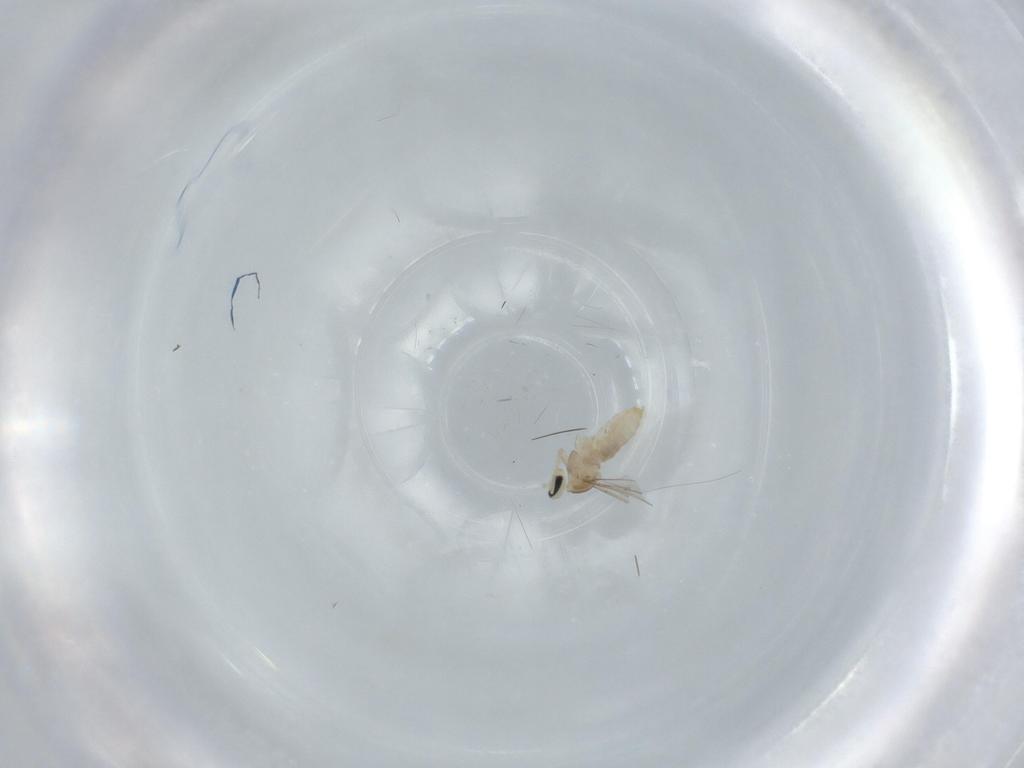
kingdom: Animalia
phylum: Arthropoda
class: Insecta
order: Diptera
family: Cecidomyiidae
